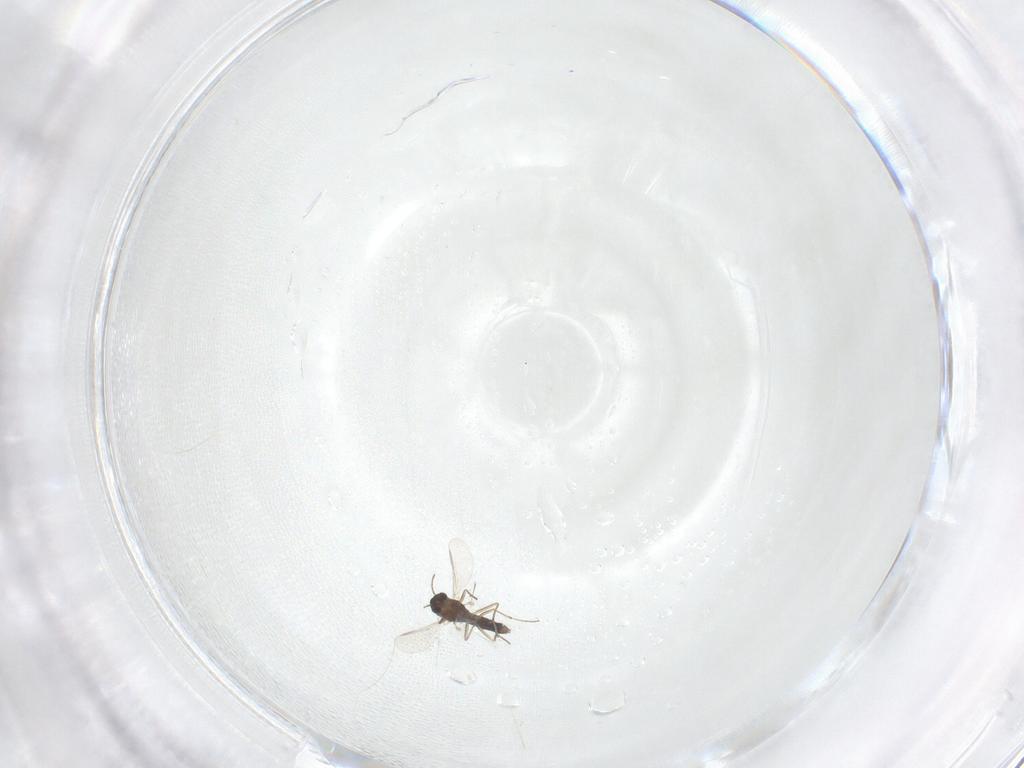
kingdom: Animalia
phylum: Arthropoda
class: Insecta
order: Diptera
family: Chironomidae
